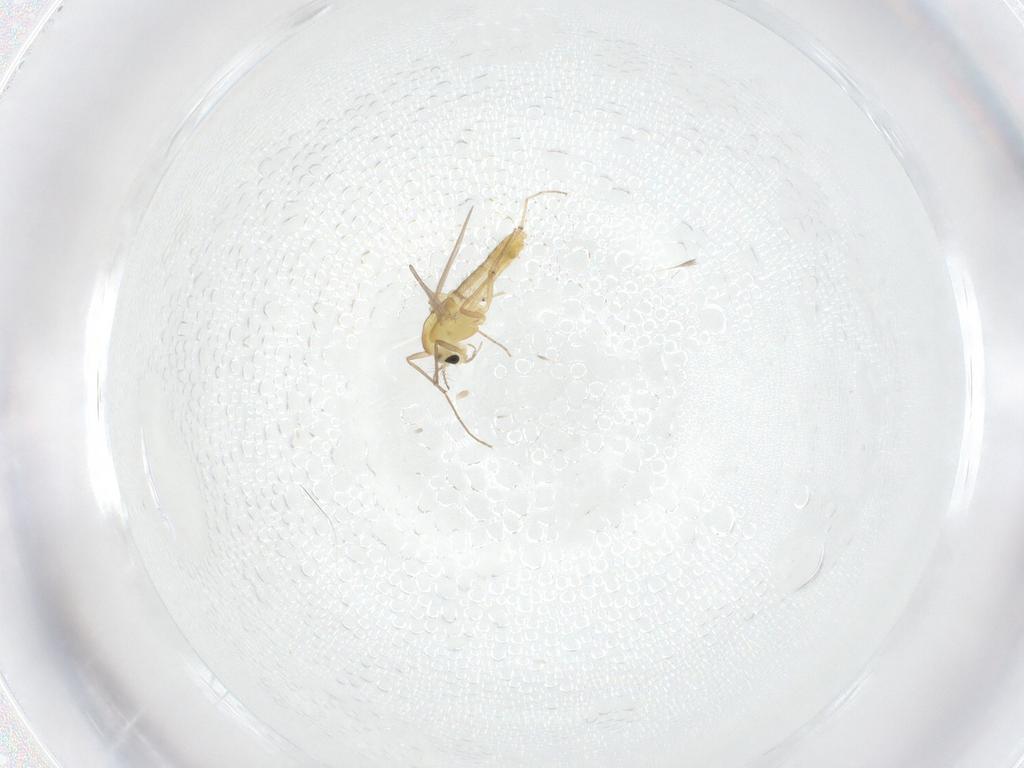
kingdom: Animalia
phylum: Arthropoda
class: Insecta
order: Diptera
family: Chironomidae
